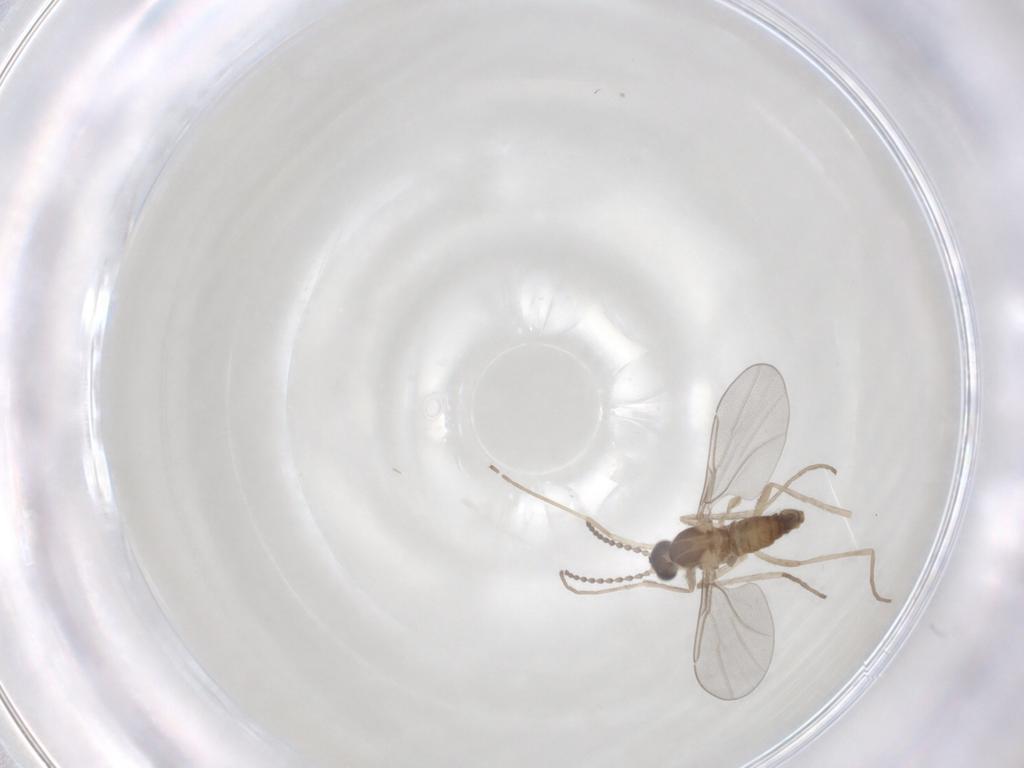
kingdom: Animalia
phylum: Arthropoda
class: Insecta
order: Diptera
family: Cecidomyiidae
